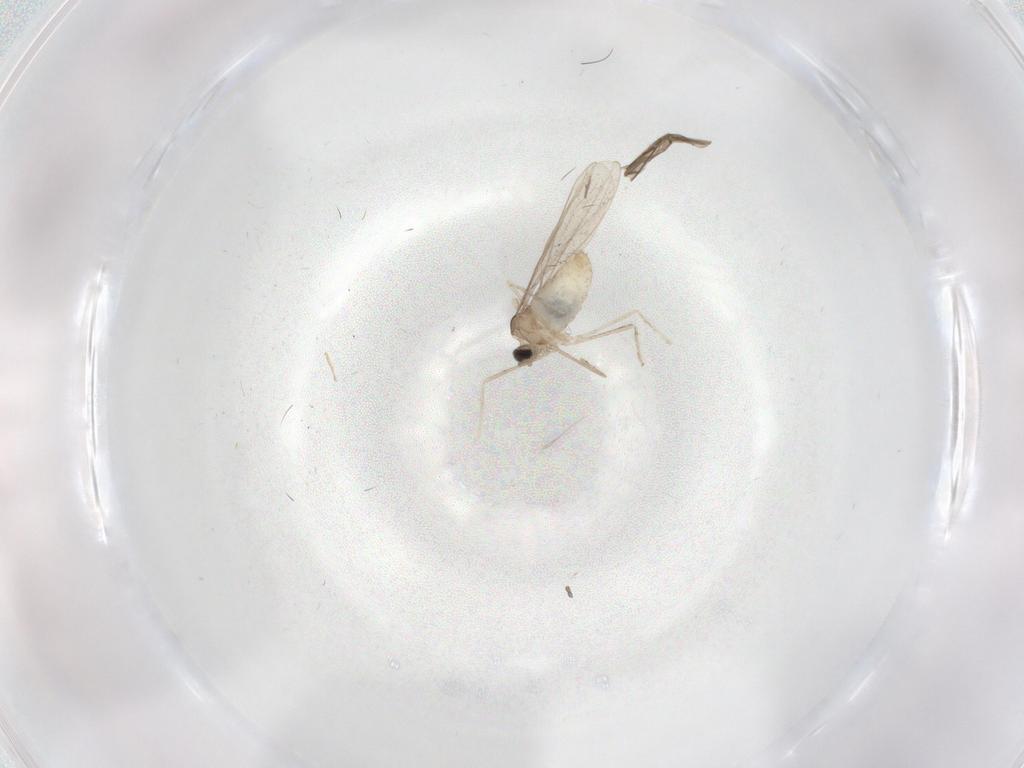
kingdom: Animalia
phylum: Arthropoda
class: Insecta
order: Diptera
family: Cecidomyiidae
